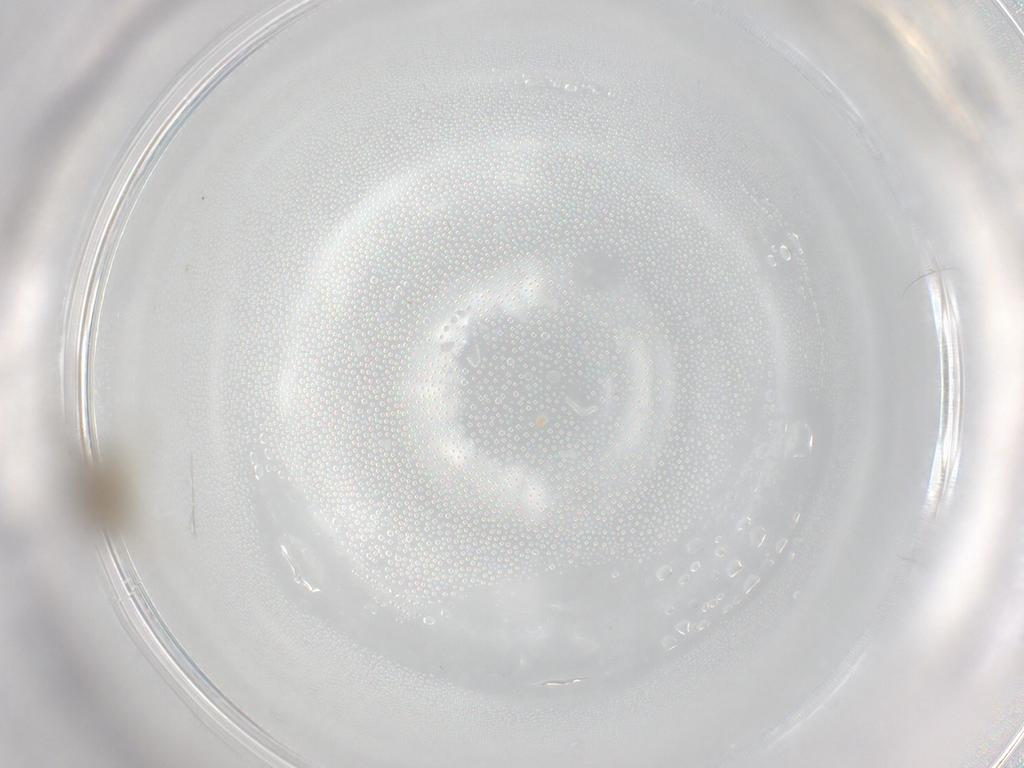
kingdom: Animalia
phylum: Arthropoda
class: Insecta
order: Diptera
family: Cecidomyiidae
